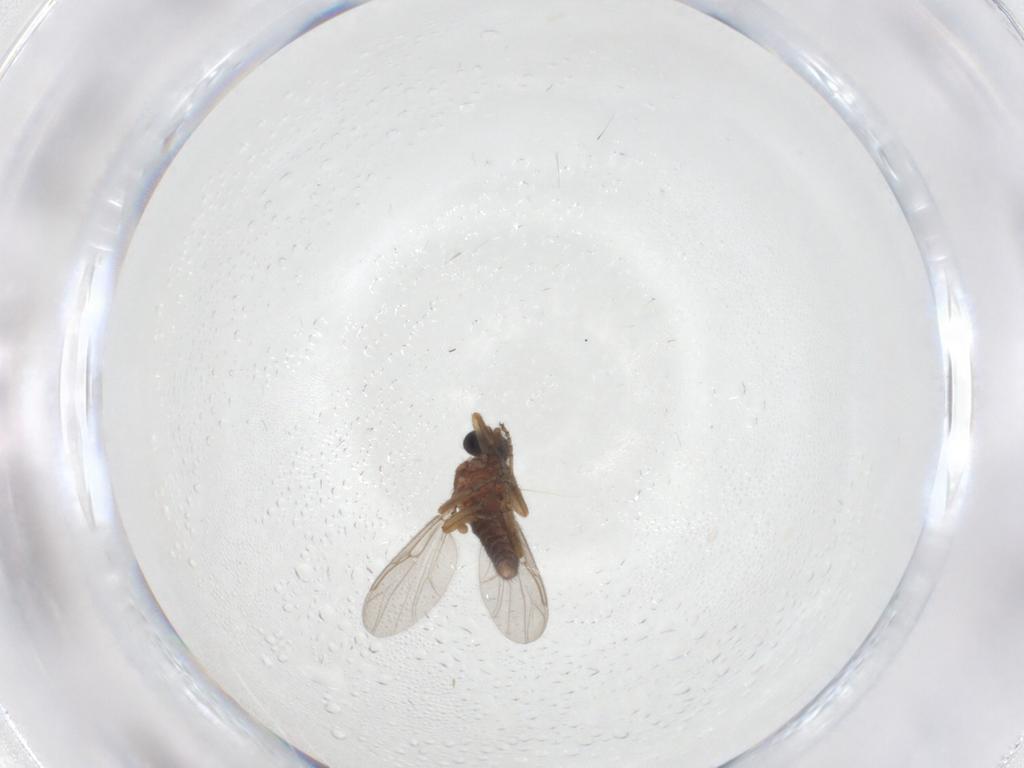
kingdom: Animalia
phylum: Arthropoda
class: Insecta
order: Diptera
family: Ceratopogonidae
